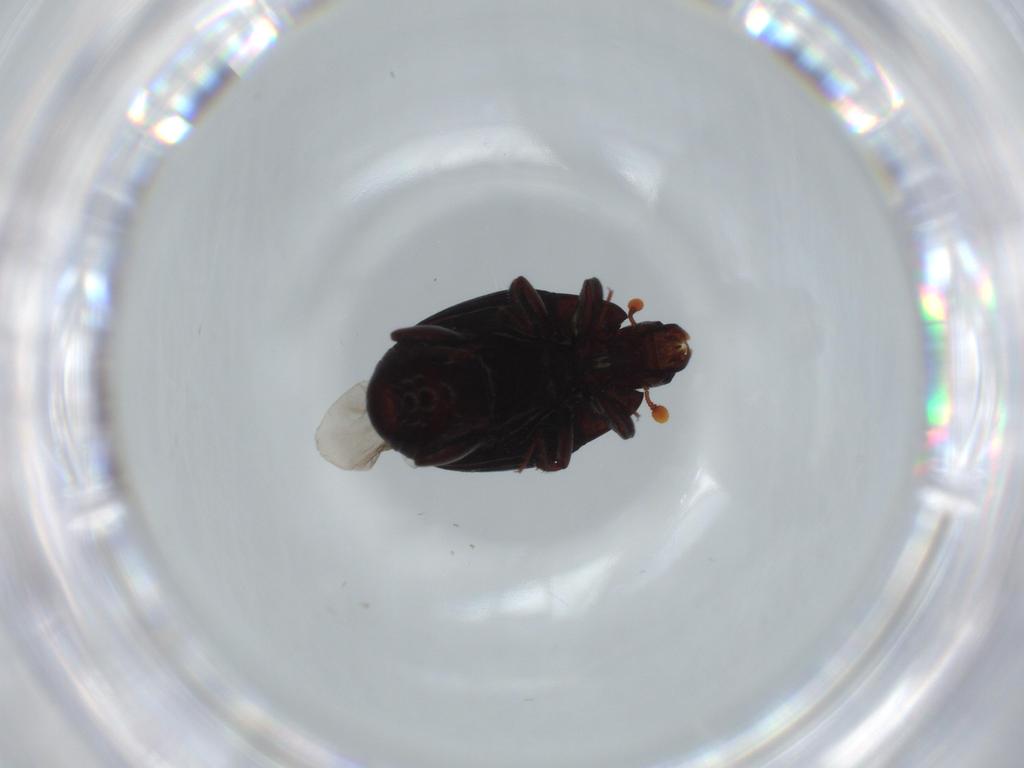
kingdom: Animalia
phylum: Arthropoda
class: Insecta
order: Coleoptera
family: Histeridae
